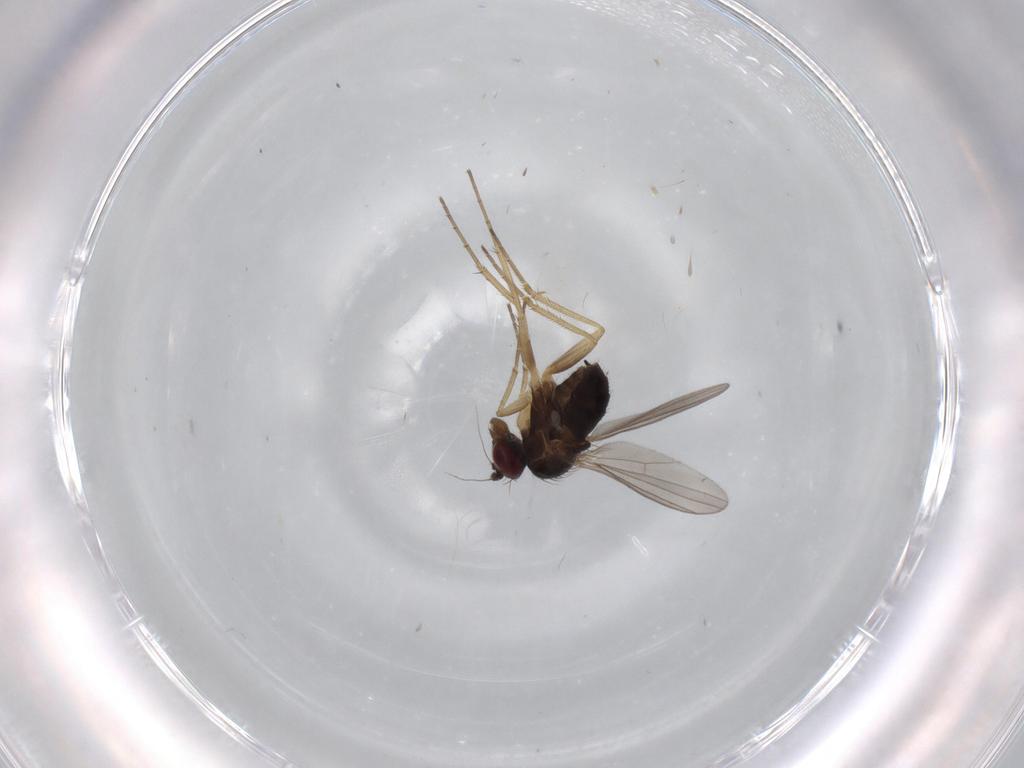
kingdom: Animalia
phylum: Arthropoda
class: Insecta
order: Diptera
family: Dolichopodidae
